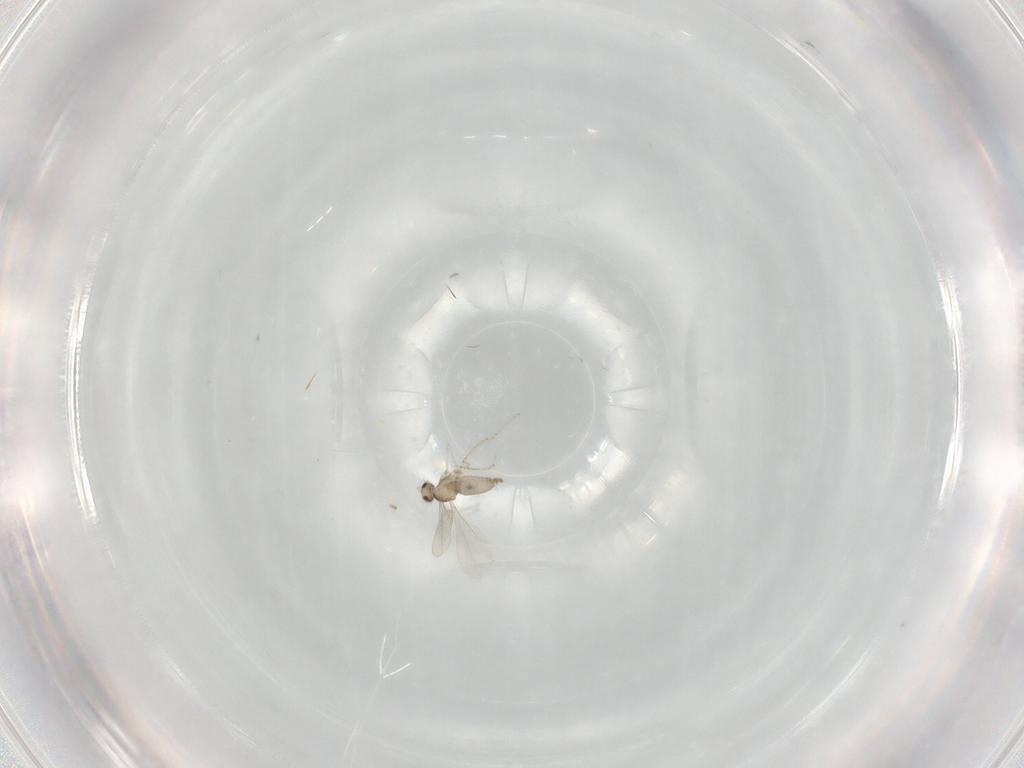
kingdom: Animalia
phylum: Arthropoda
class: Insecta
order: Diptera
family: Cecidomyiidae
